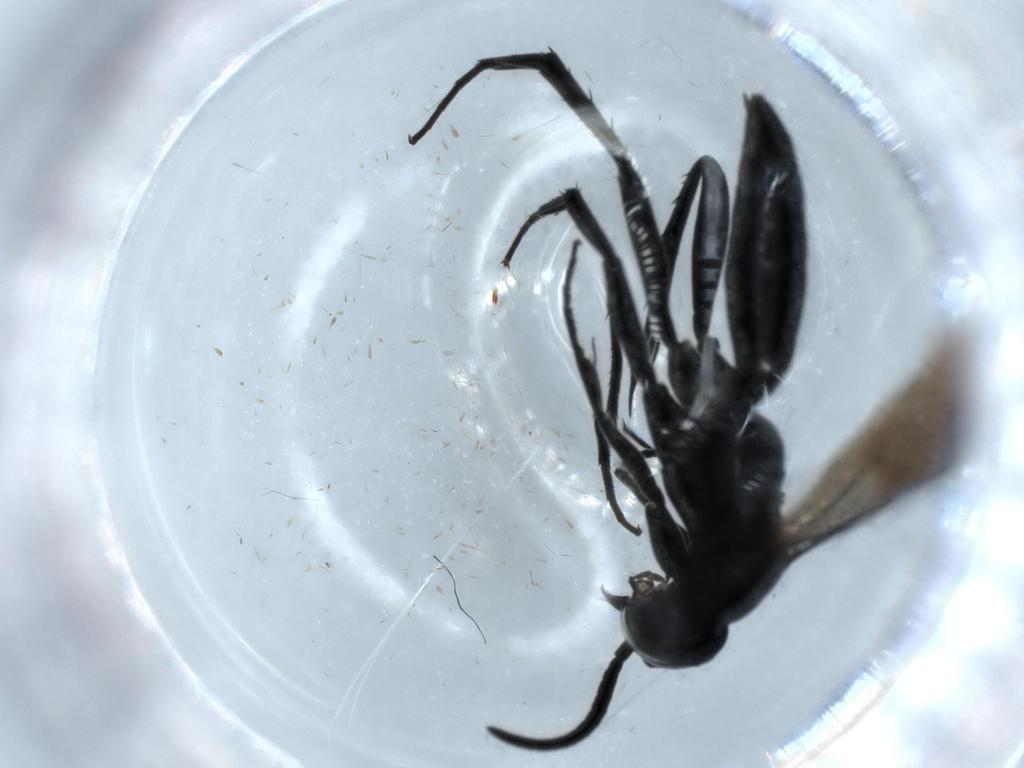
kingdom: Animalia
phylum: Arthropoda
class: Insecta
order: Hymenoptera
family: Pompilidae
